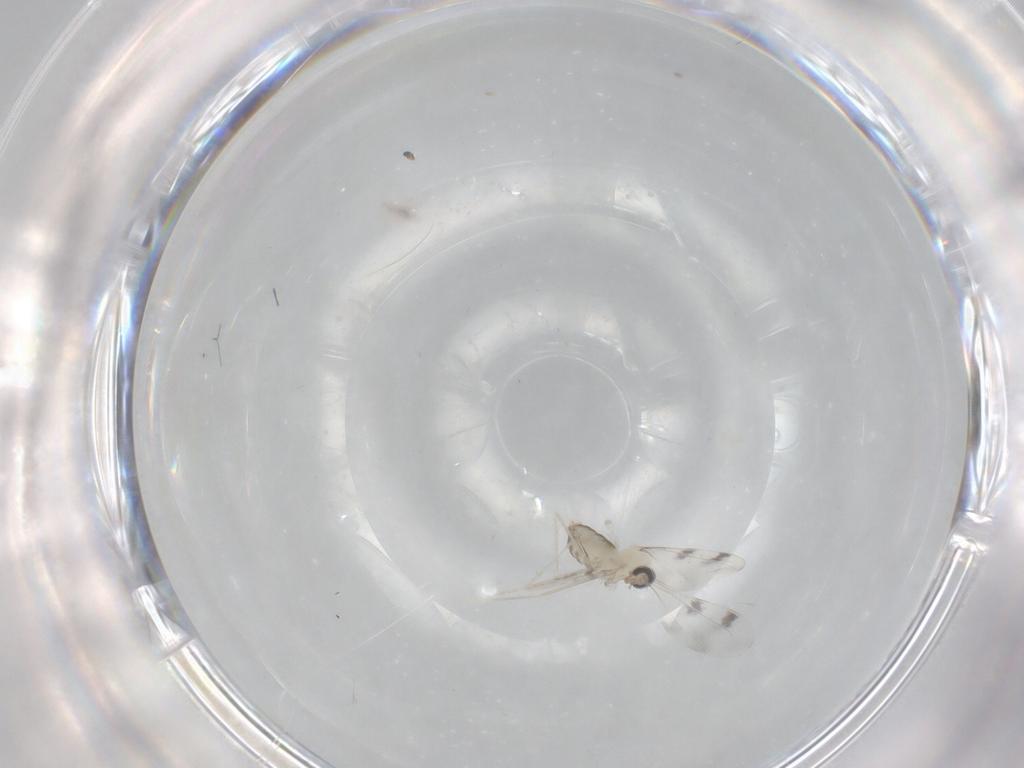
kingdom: Animalia
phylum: Arthropoda
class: Insecta
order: Diptera
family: Cecidomyiidae
